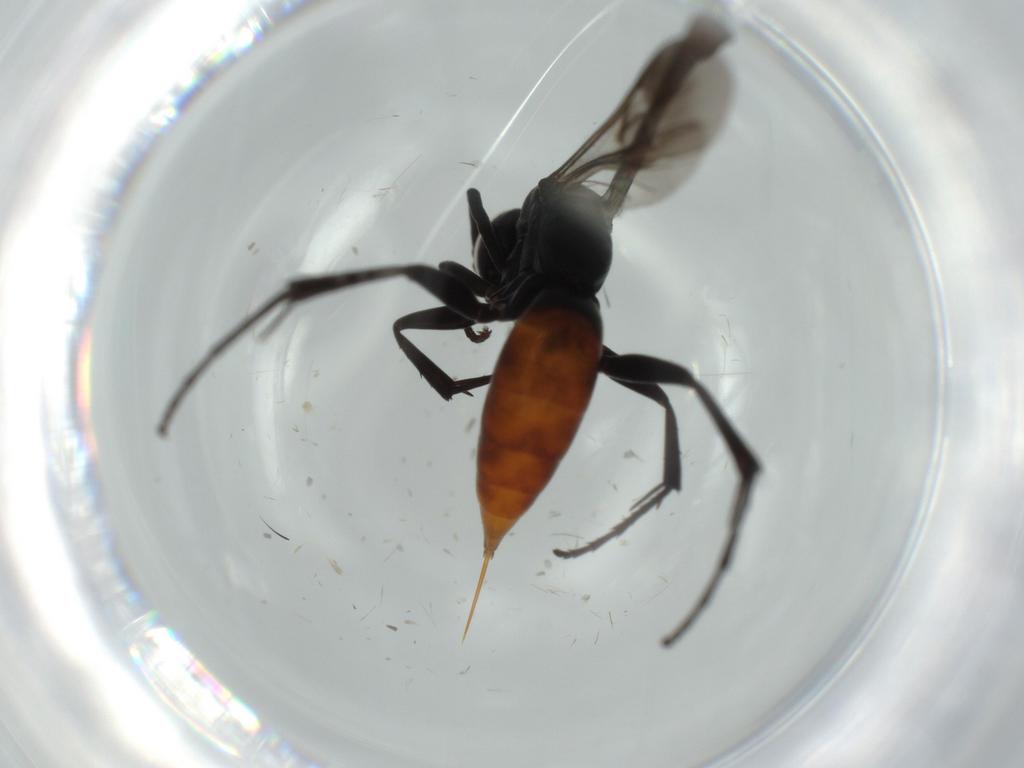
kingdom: Animalia
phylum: Arthropoda
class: Insecta
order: Hymenoptera
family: Pompilidae
